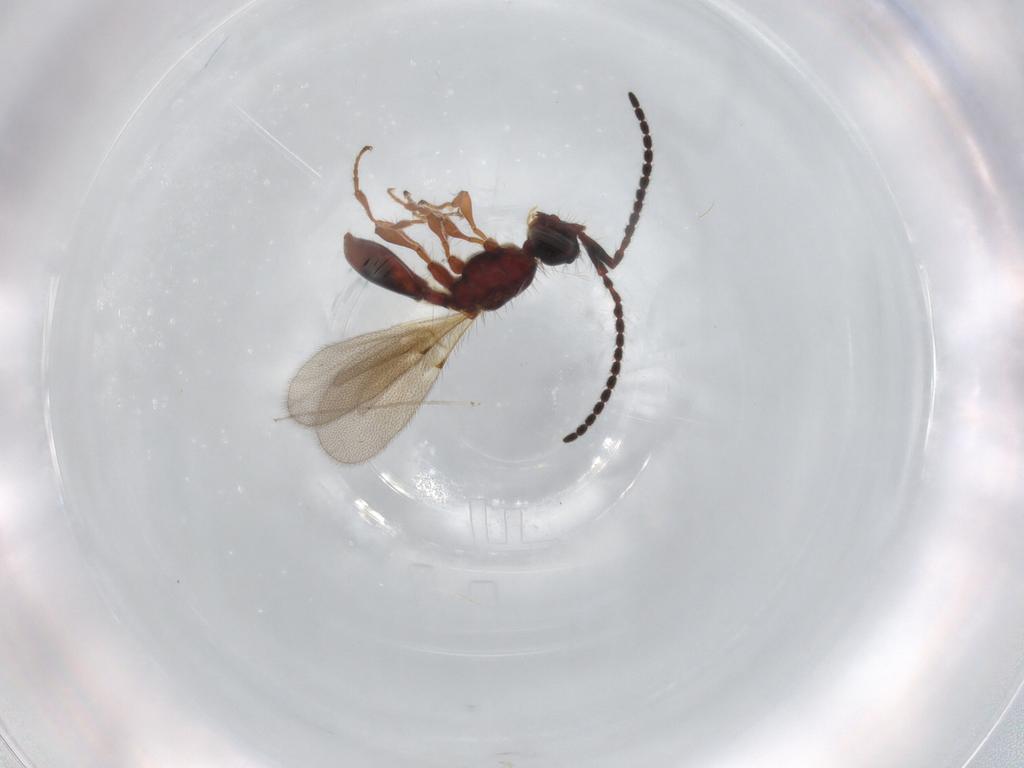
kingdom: Animalia
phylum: Arthropoda
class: Insecta
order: Hymenoptera
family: Diapriidae
